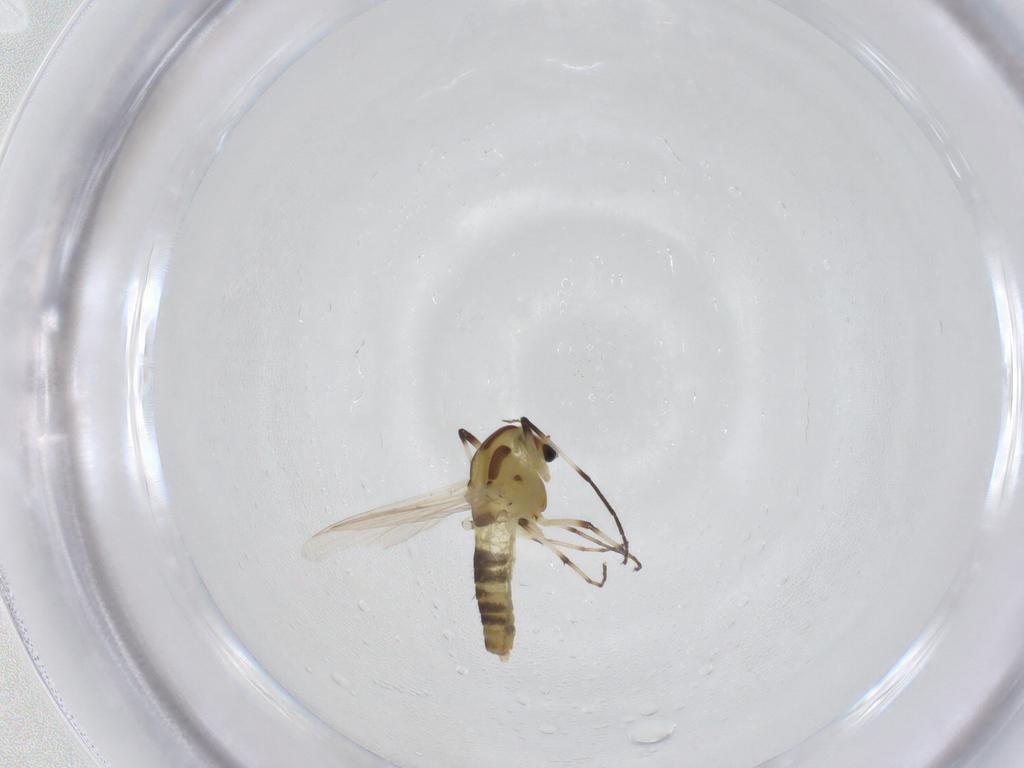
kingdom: Animalia
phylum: Arthropoda
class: Insecta
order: Diptera
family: Chironomidae
